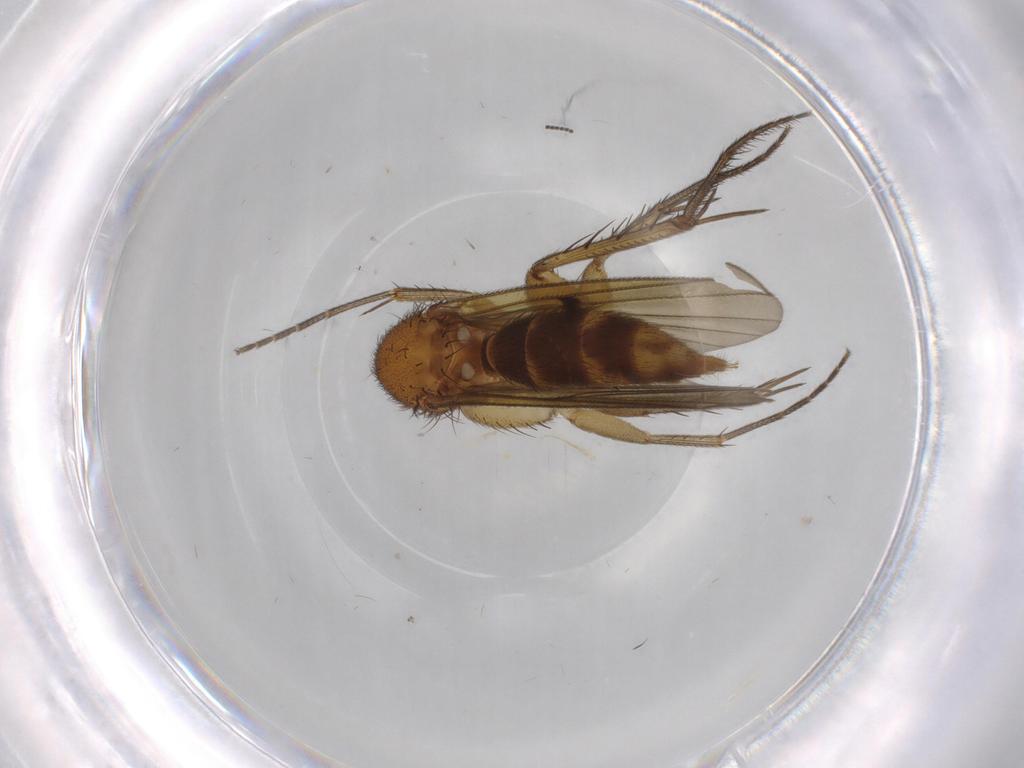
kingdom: Animalia
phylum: Arthropoda
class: Insecta
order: Diptera
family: Mycetophilidae
